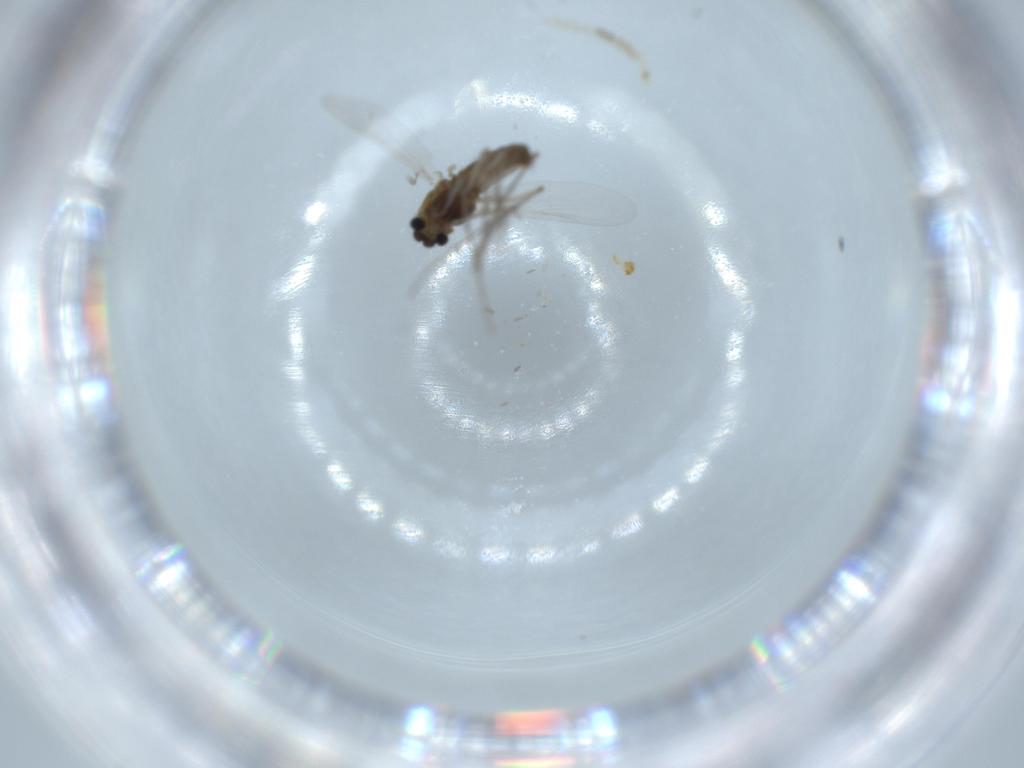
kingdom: Animalia
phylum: Arthropoda
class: Insecta
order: Diptera
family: Chironomidae
